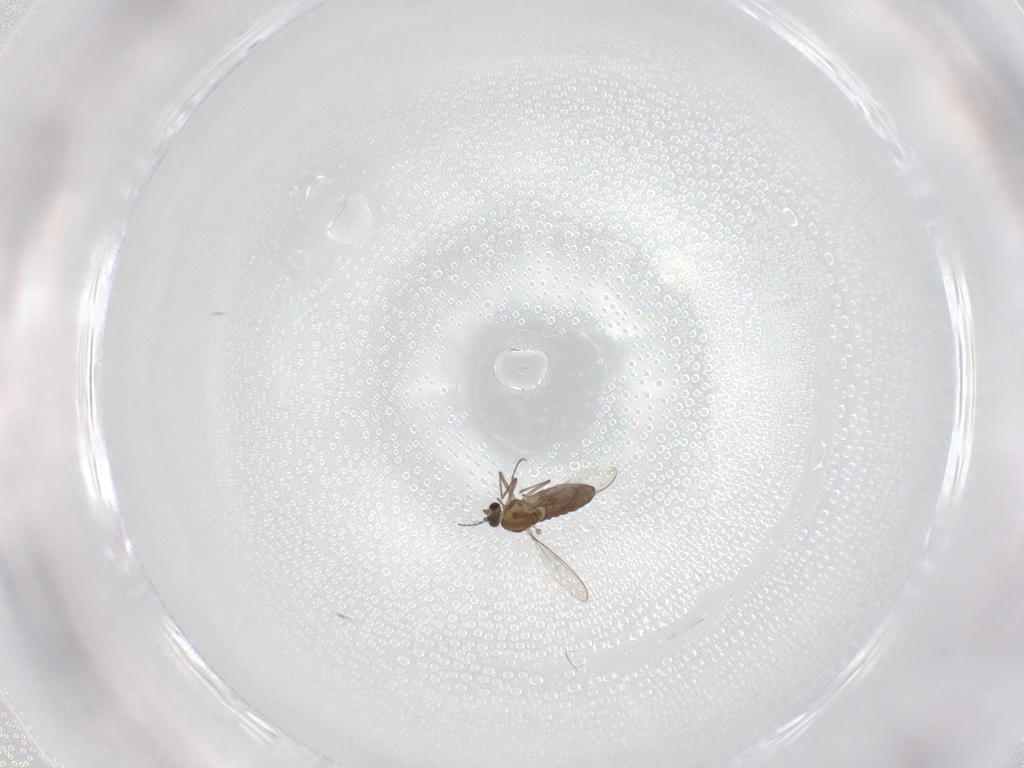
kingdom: Animalia
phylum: Arthropoda
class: Insecta
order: Diptera
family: Chironomidae
